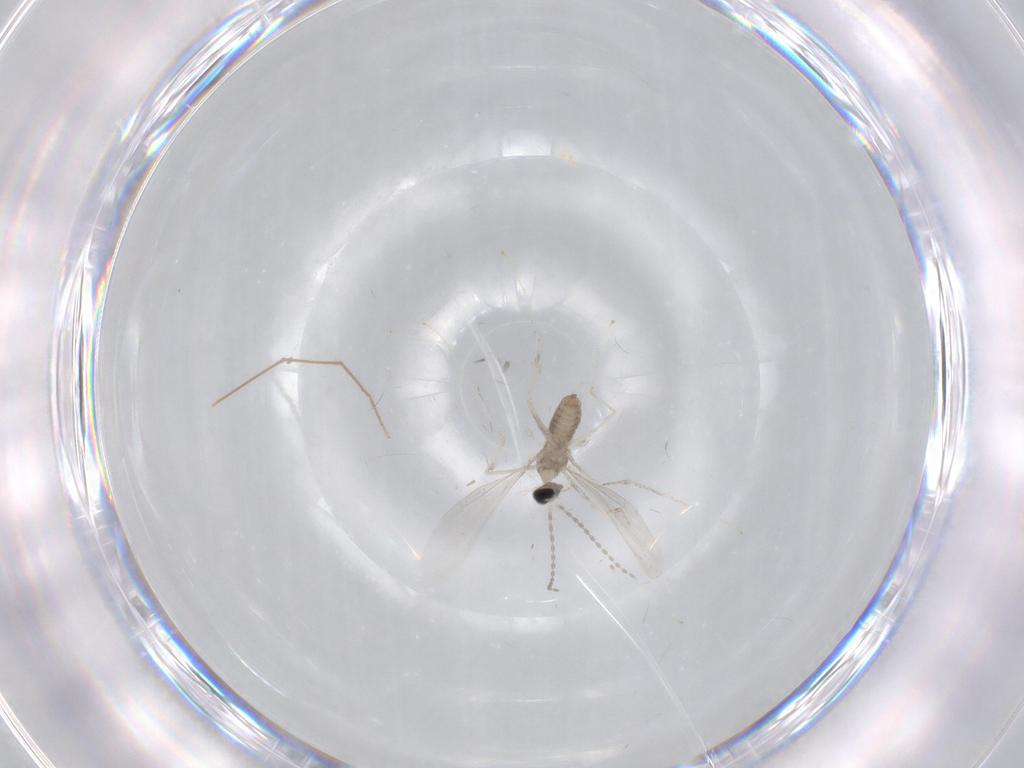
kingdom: Animalia
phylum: Arthropoda
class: Insecta
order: Diptera
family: Cecidomyiidae
